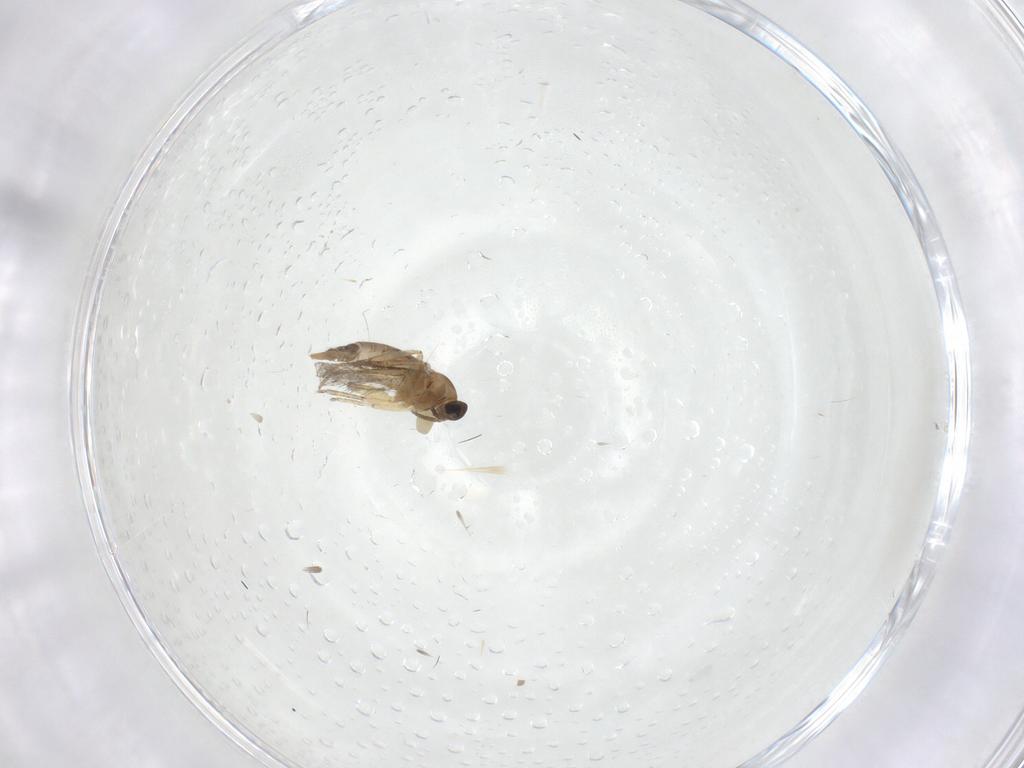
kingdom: Animalia
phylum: Arthropoda
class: Insecta
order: Diptera
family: Sciaridae
